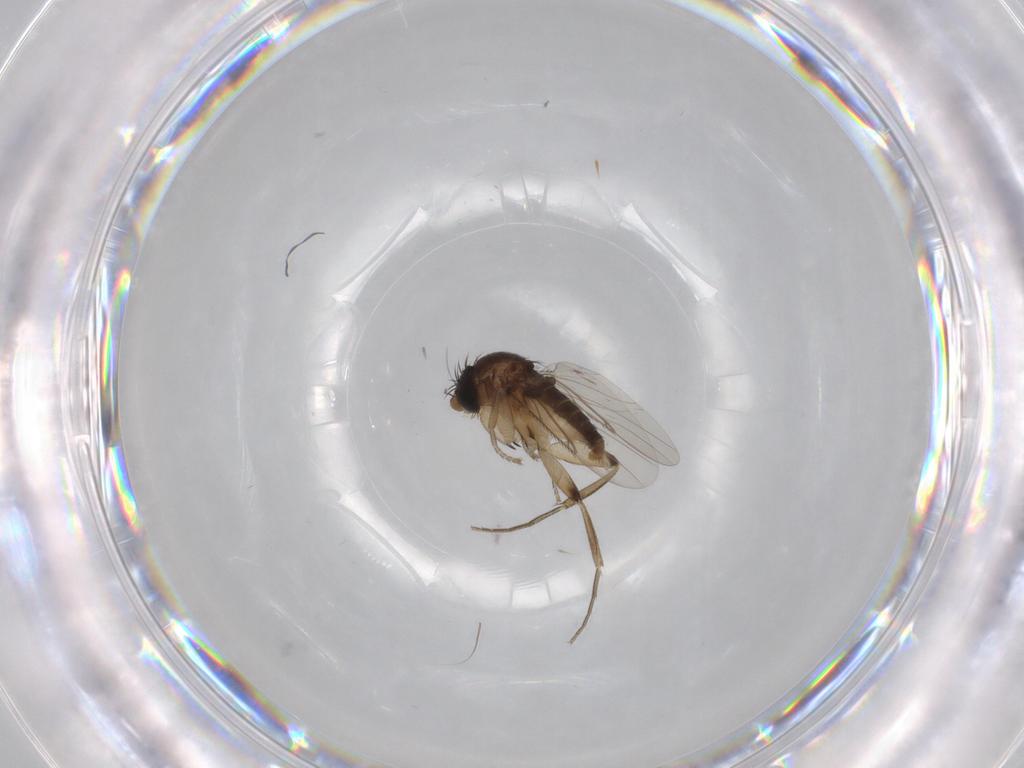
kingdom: Animalia
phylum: Arthropoda
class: Insecta
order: Diptera
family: Phoridae
